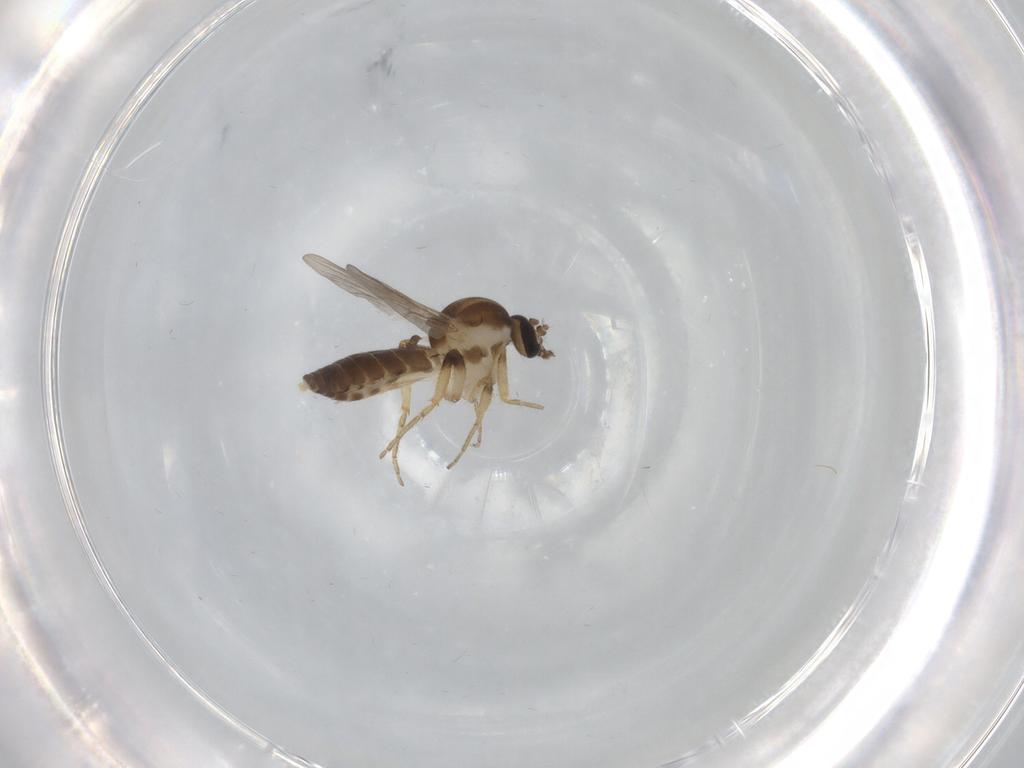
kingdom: Animalia
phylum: Arthropoda
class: Insecta
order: Diptera
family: Ceratopogonidae
